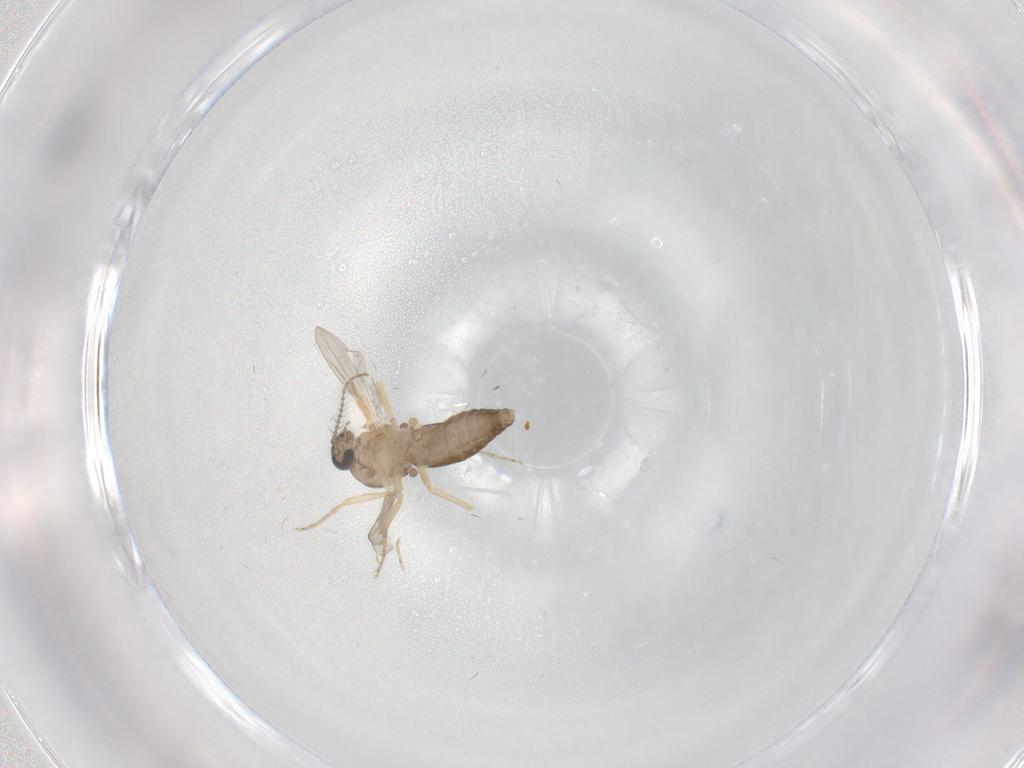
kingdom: Animalia
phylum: Arthropoda
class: Insecta
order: Diptera
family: Ceratopogonidae
